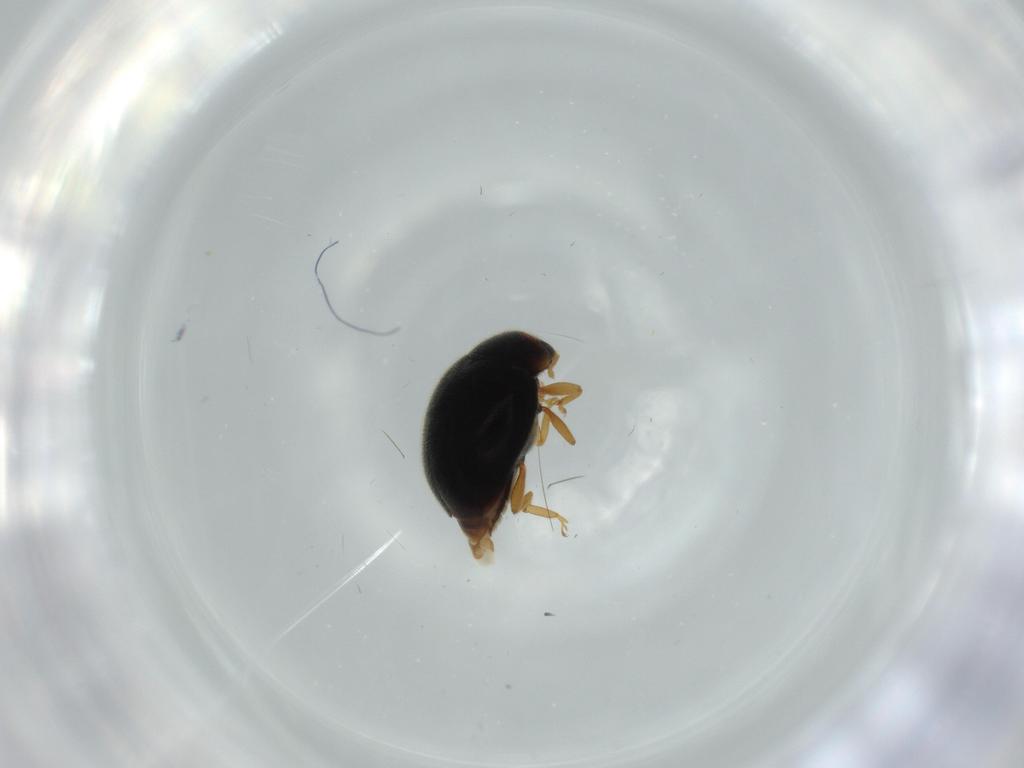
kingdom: Animalia
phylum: Arthropoda
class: Insecta
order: Coleoptera
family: Coccinellidae
